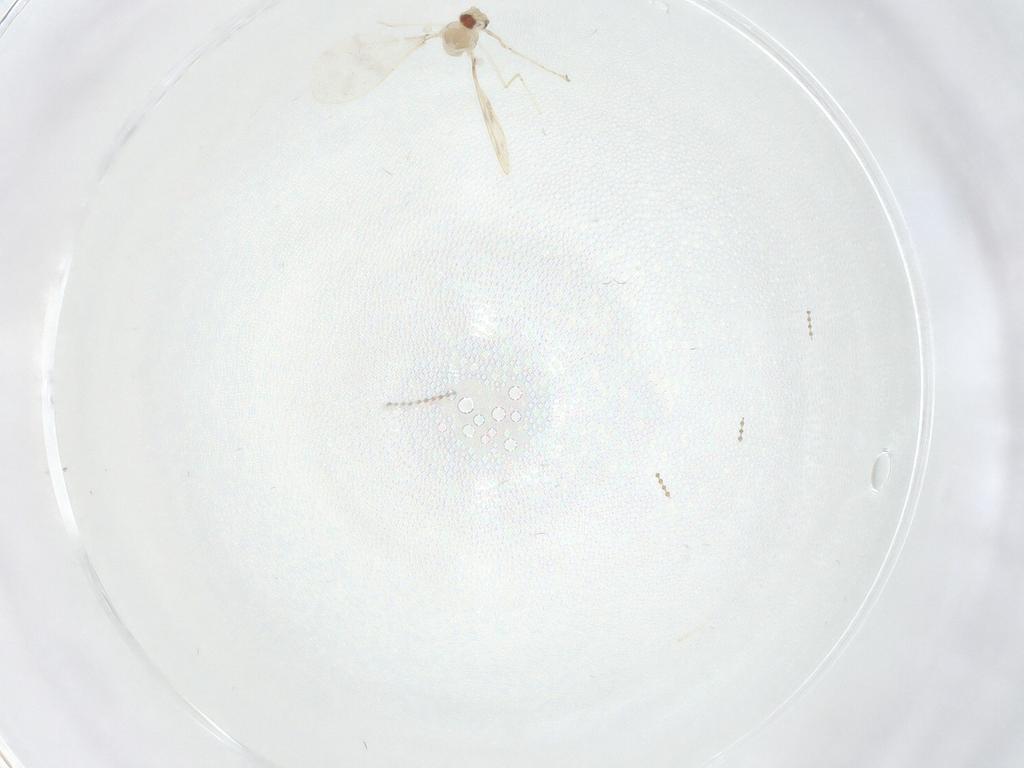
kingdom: Animalia
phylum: Arthropoda
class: Insecta
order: Diptera
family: Cecidomyiidae
